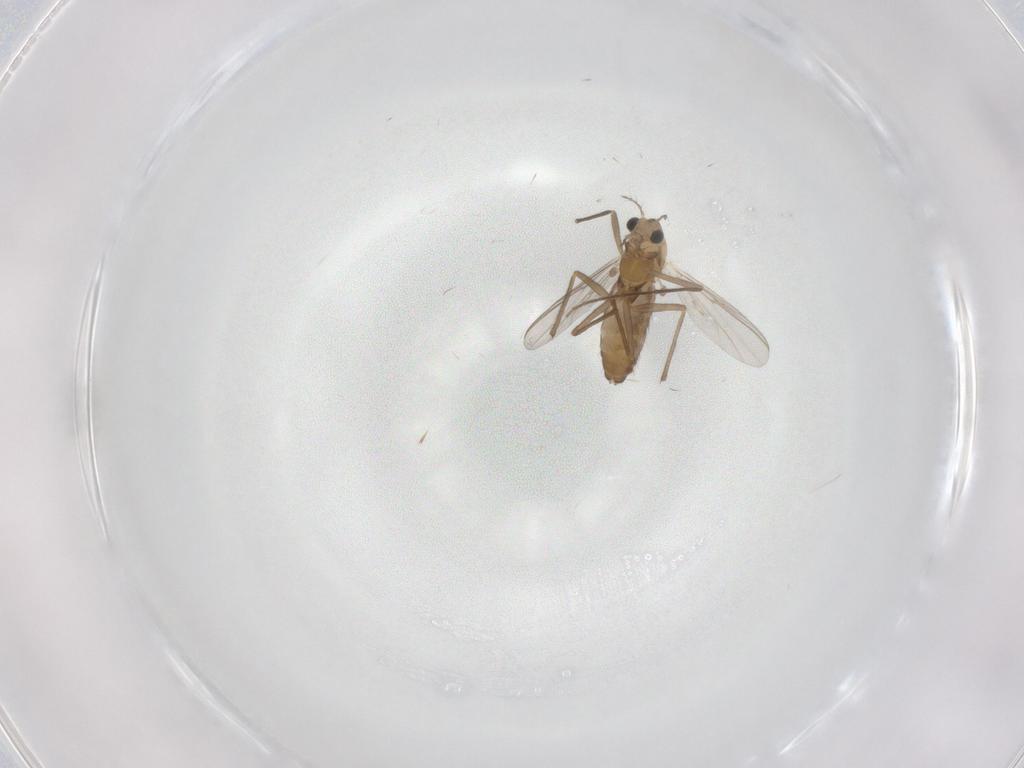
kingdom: Animalia
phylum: Arthropoda
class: Insecta
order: Diptera
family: Chironomidae
